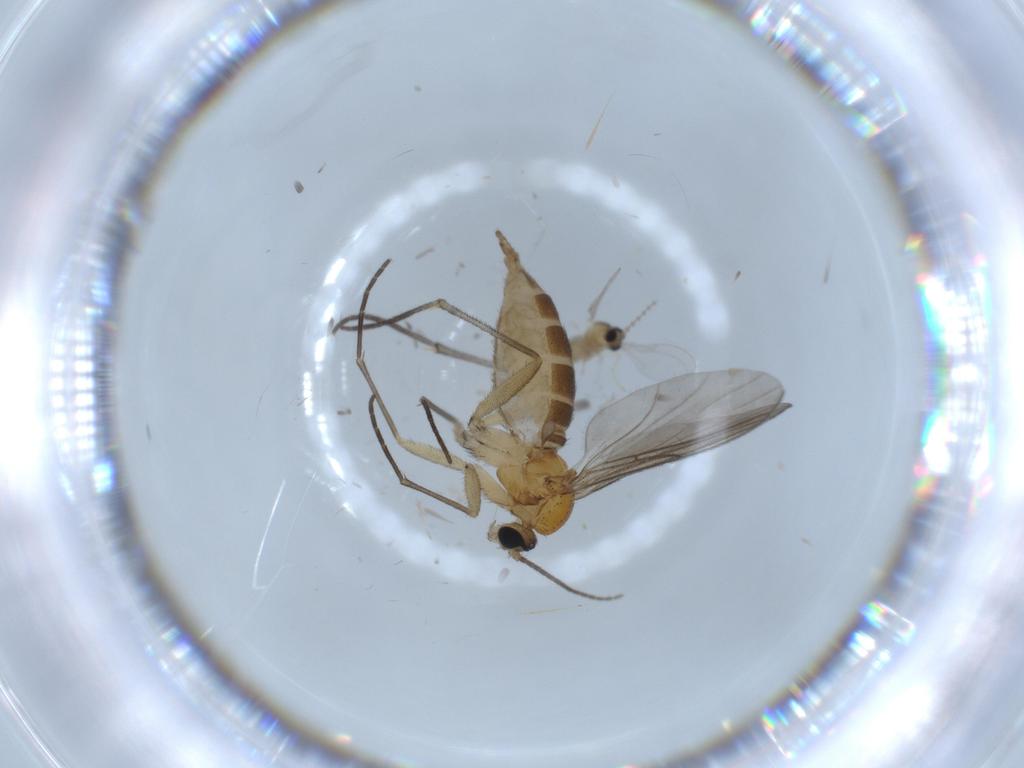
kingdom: Animalia
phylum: Arthropoda
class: Insecta
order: Diptera
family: Sciaridae
